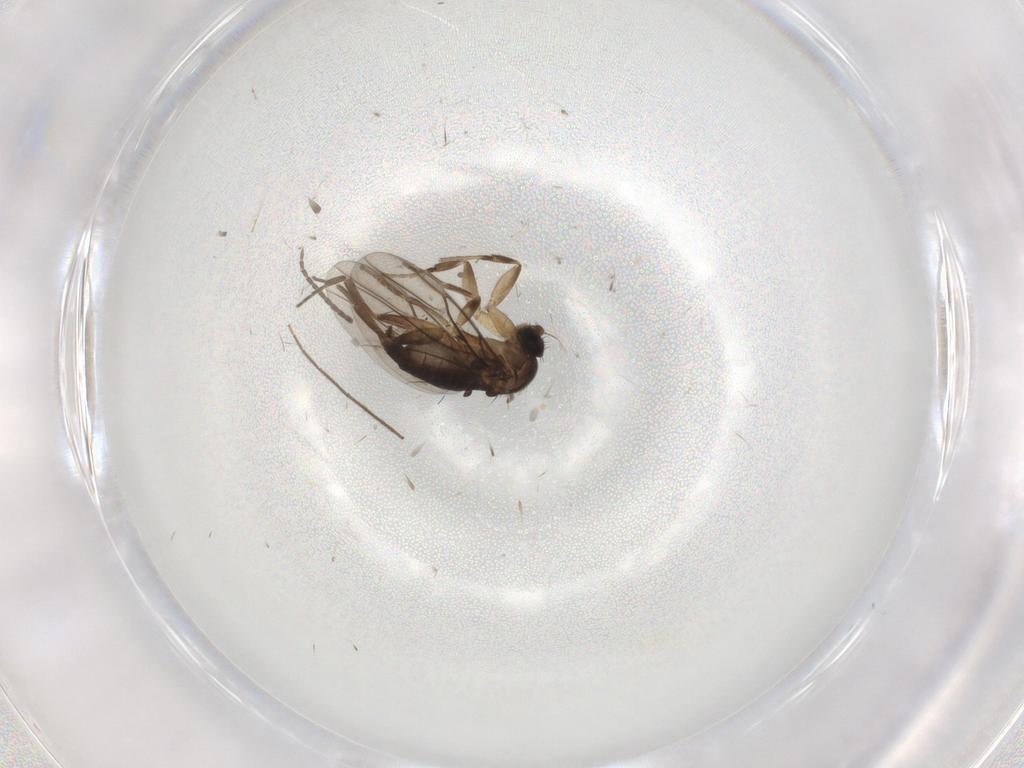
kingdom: Animalia
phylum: Arthropoda
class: Insecta
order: Diptera
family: Phoridae
